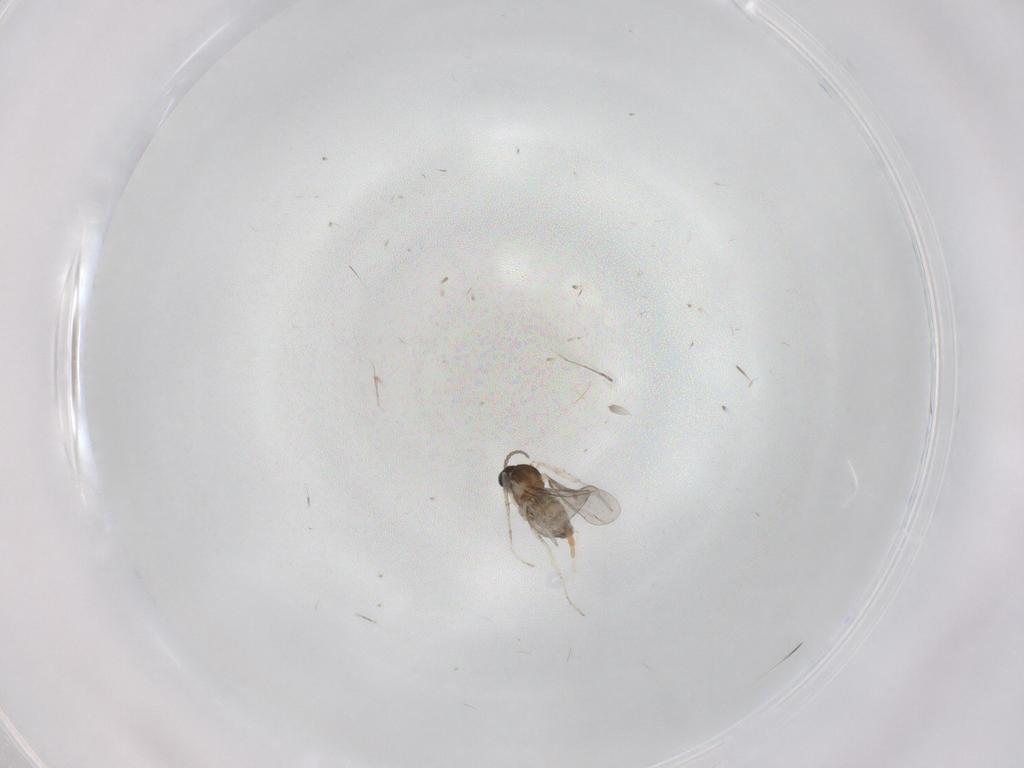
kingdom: Animalia
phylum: Arthropoda
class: Insecta
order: Diptera
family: Cecidomyiidae
